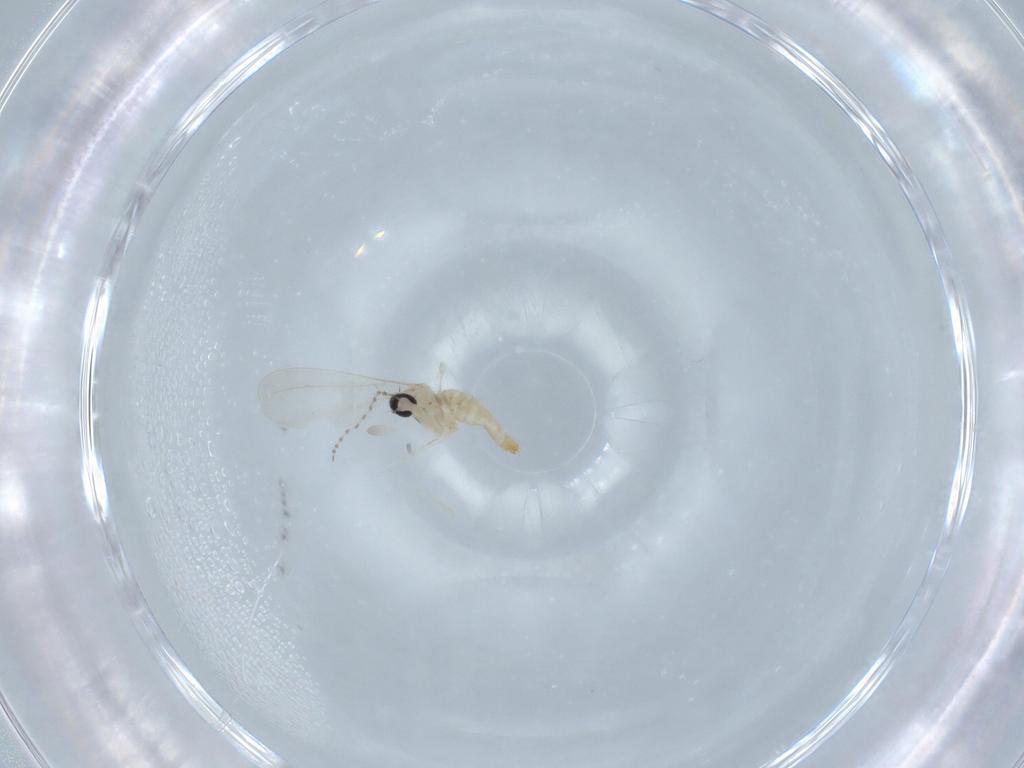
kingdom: Animalia
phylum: Arthropoda
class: Insecta
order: Diptera
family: Cecidomyiidae
